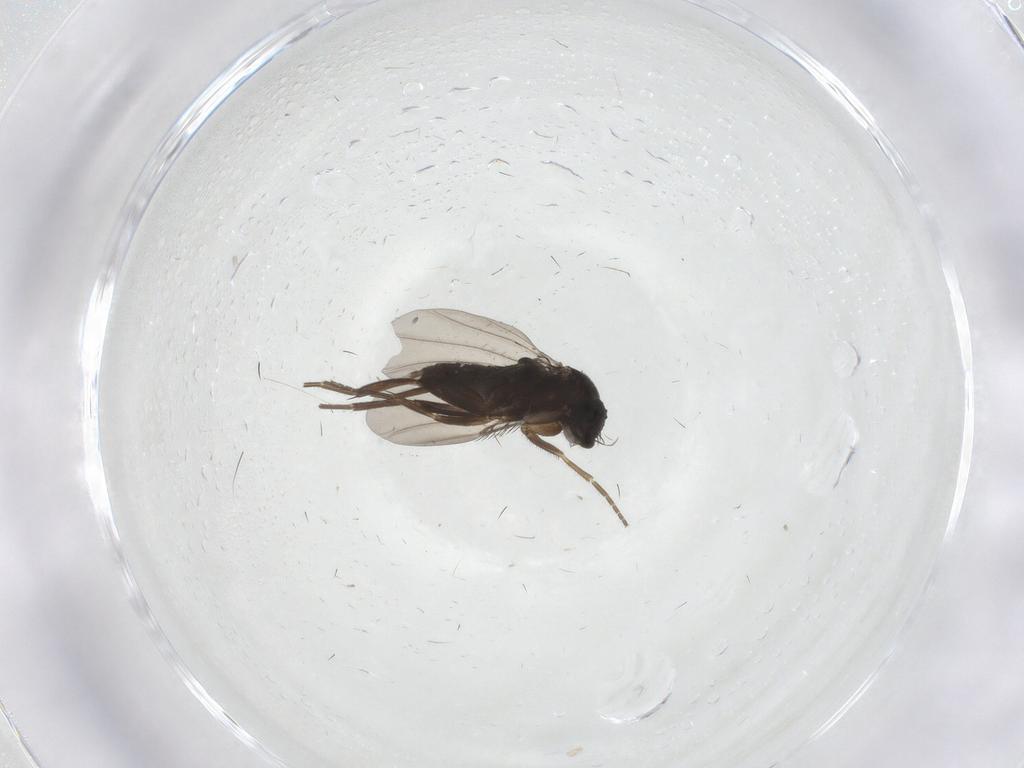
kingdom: Animalia
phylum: Arthropoda
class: Insecta
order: Diptera
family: Phoridae
